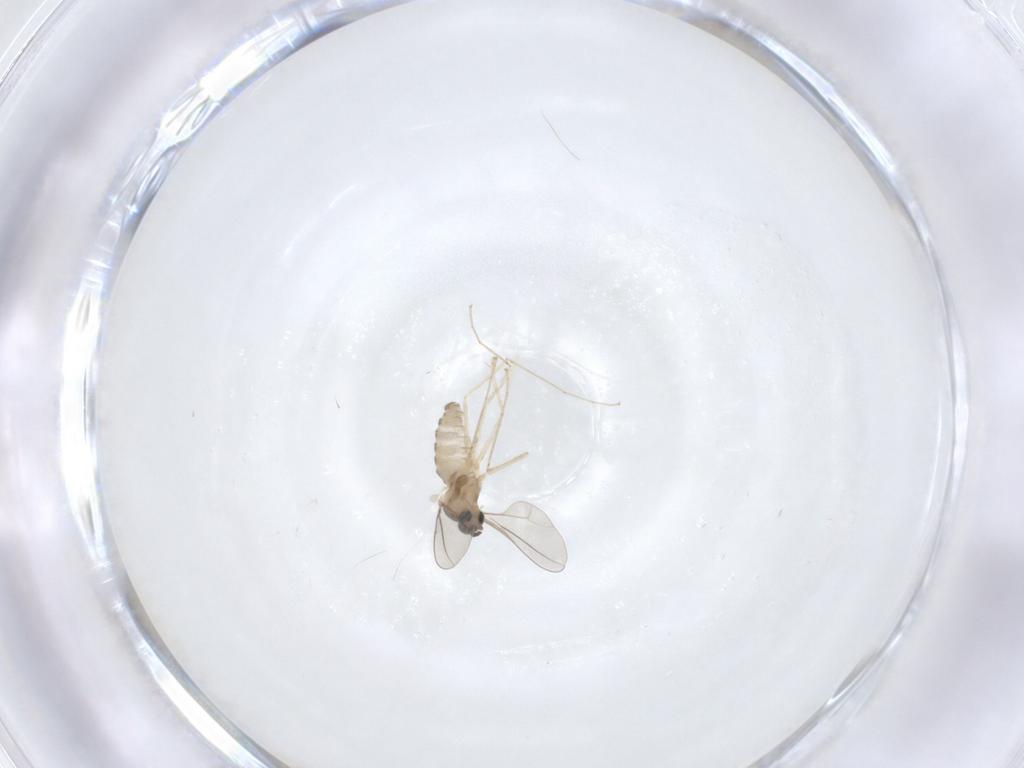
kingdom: Animalia
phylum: Arthropoda
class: Insecta
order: Diptera
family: Cecidomyiidae
